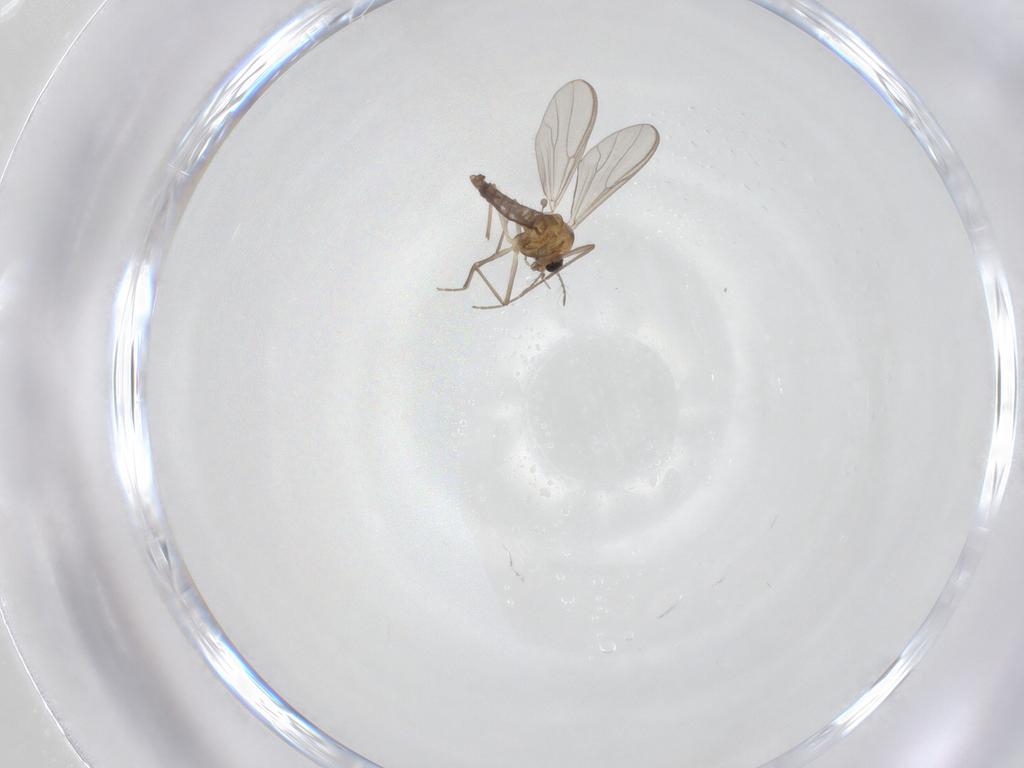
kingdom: Animalia
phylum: Arthropoda
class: Insecta
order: Diptera
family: Chironomidae
